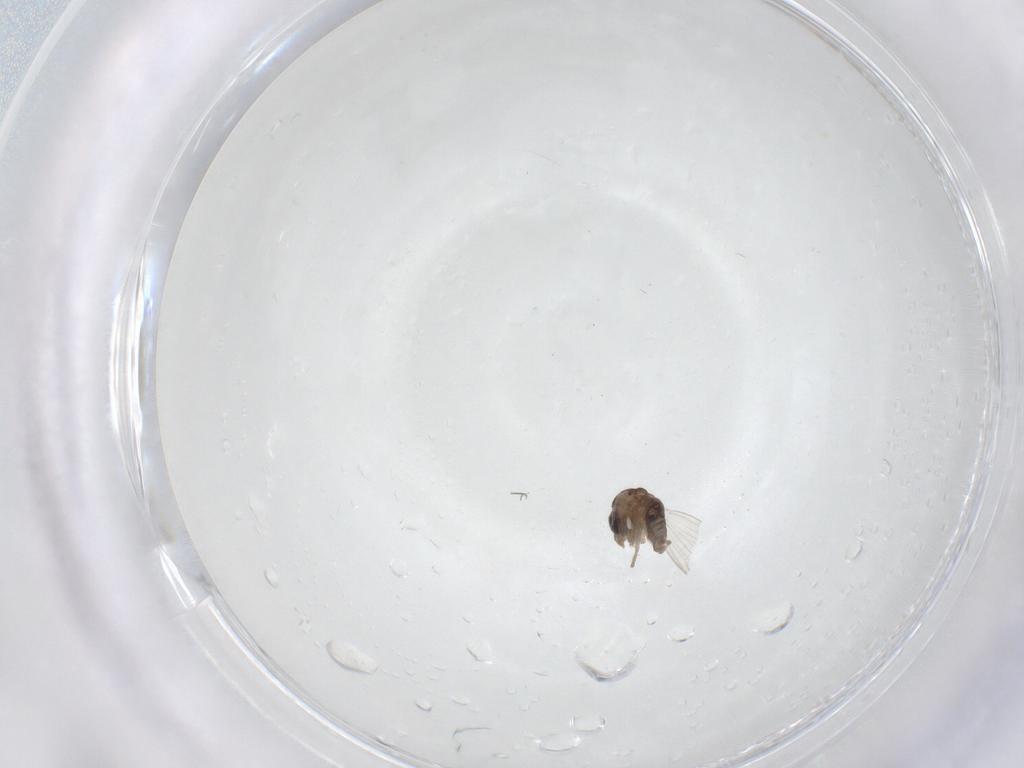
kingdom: Animalia
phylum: Arthropoda
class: Insecta
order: Diptera
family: Psychodidae
